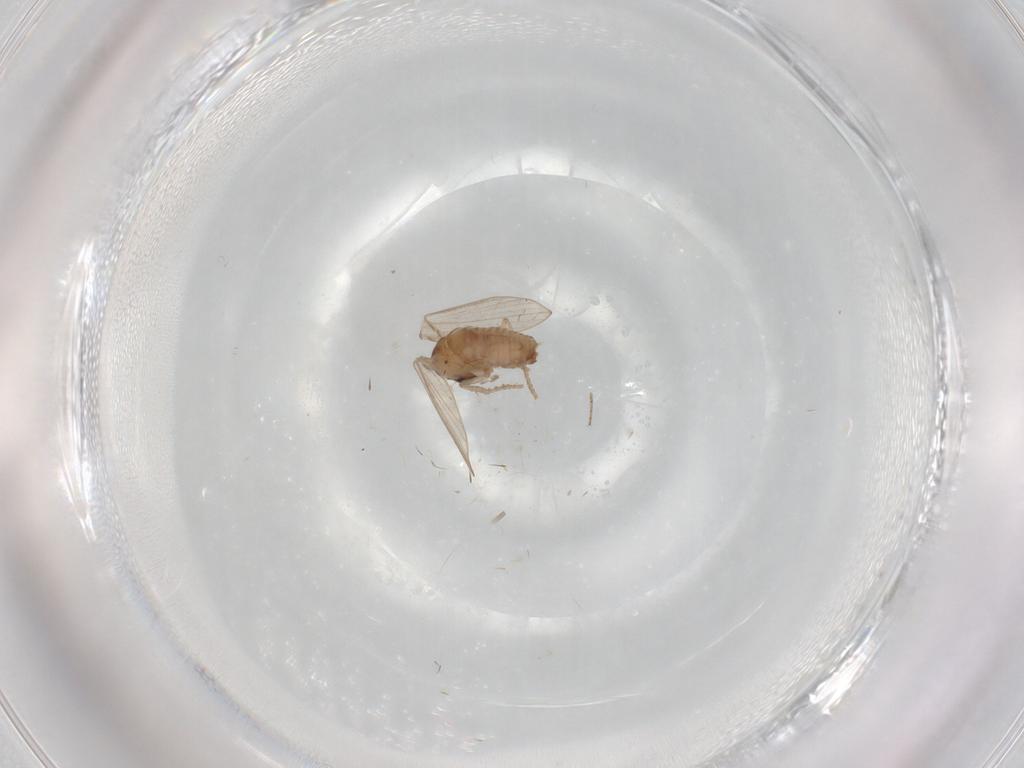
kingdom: Animalia
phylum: Arthropoda
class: Insecta
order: Diptera
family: Psychodidae
